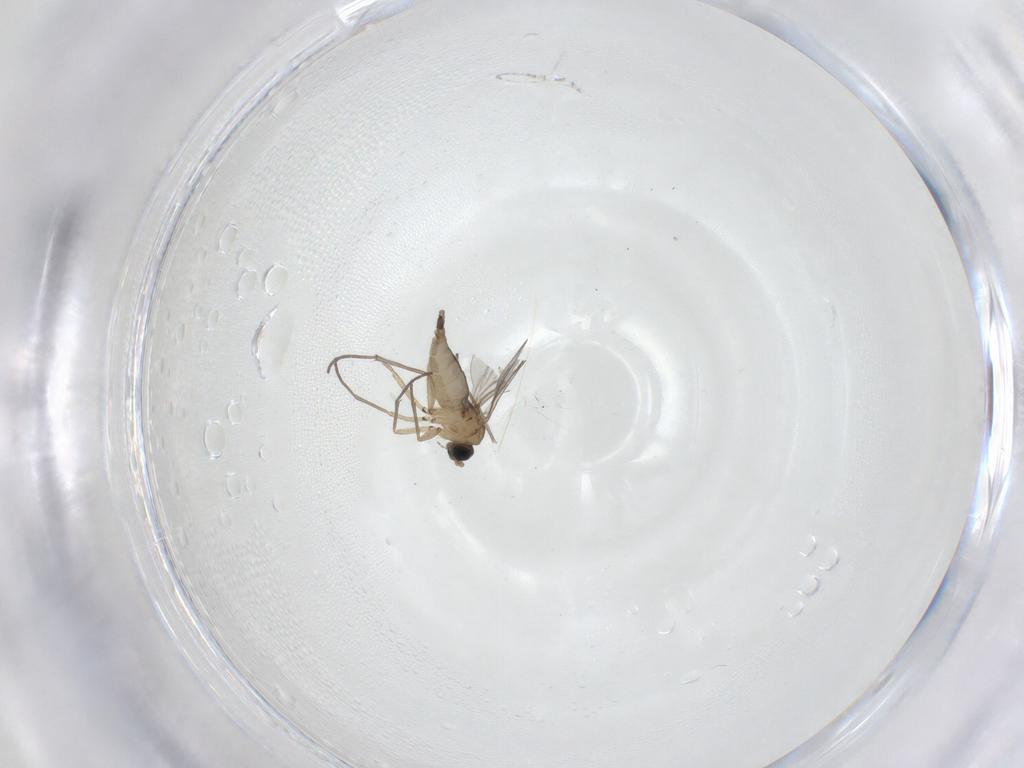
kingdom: Animalia
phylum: Arthropoda
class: Insecta
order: Diptera
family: Sciaridae
